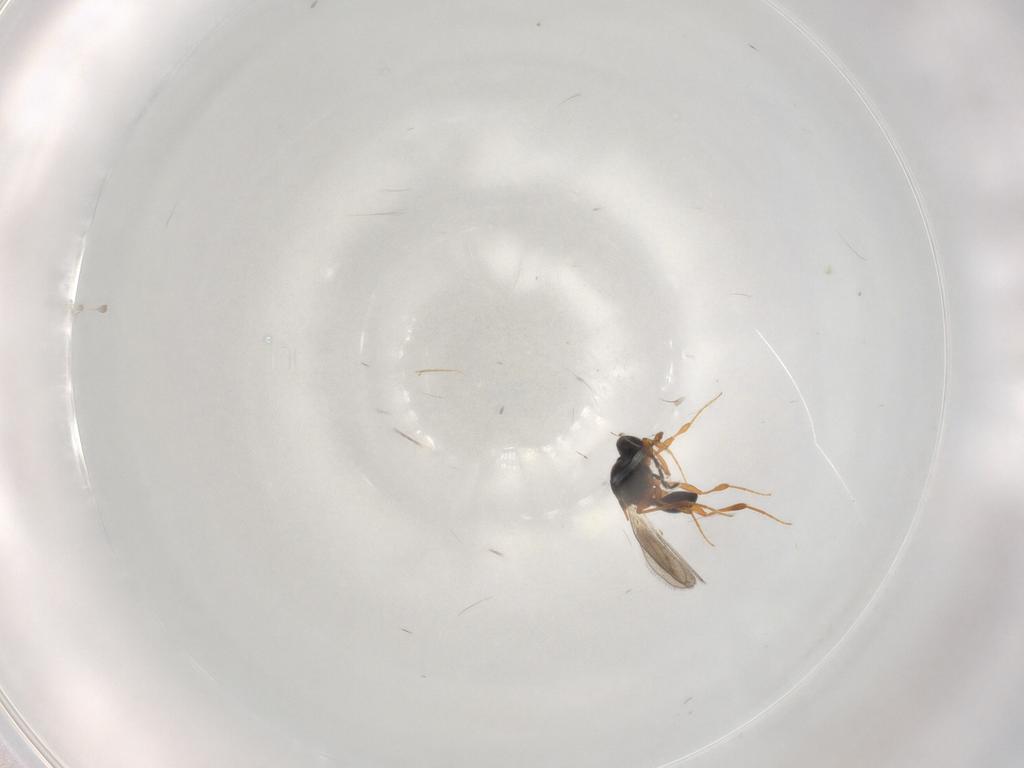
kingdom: Animalia
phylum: Arthropoda
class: Insecta
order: Hymenoptera
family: Platygastridae
